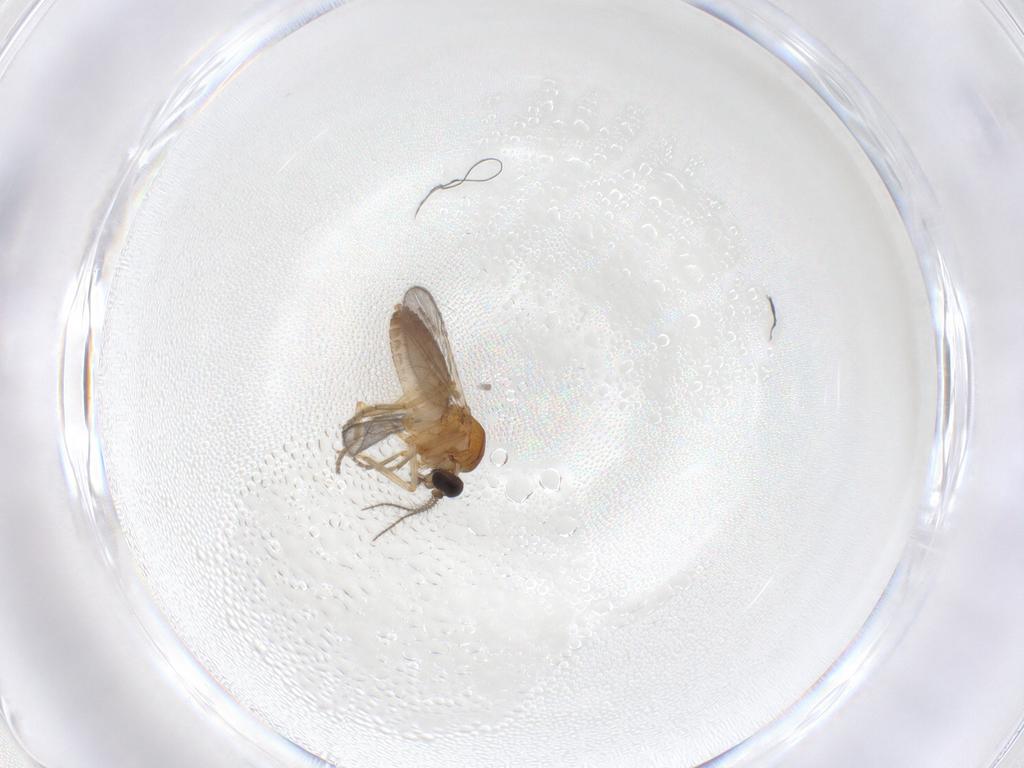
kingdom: Animalia
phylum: Arthropoda
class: Insecta
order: Diptera
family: Ceratopogonidae
